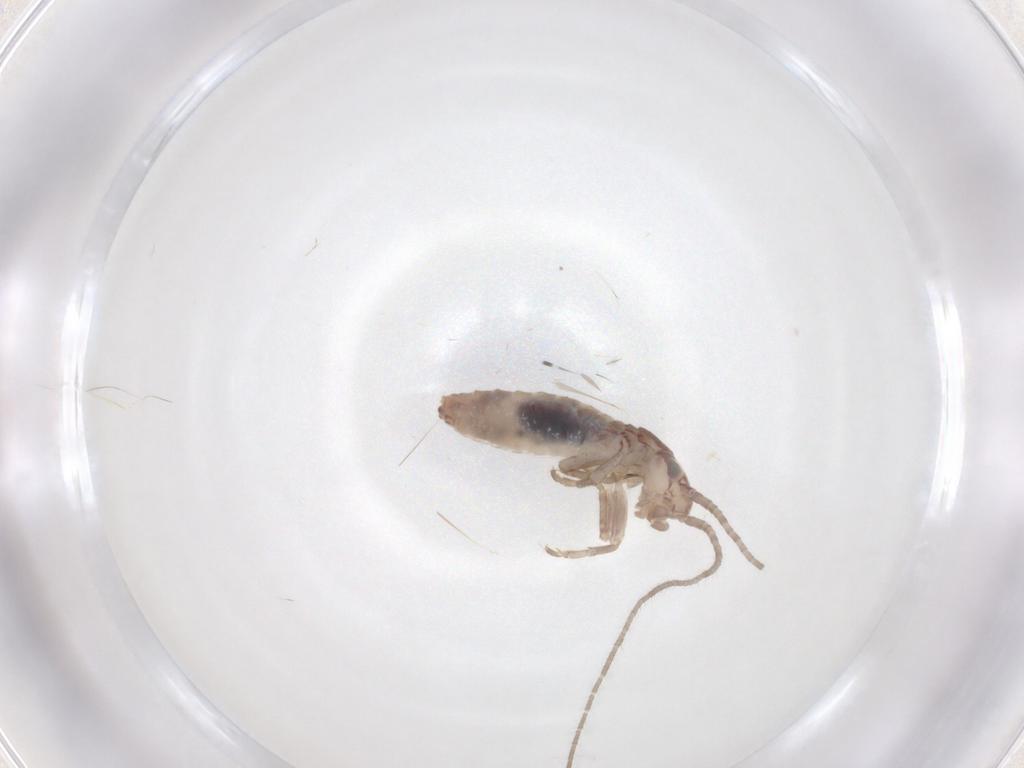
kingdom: Animalia
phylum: Arthropoda
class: Insecta
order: Orthoptera
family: Mogoplistidae
